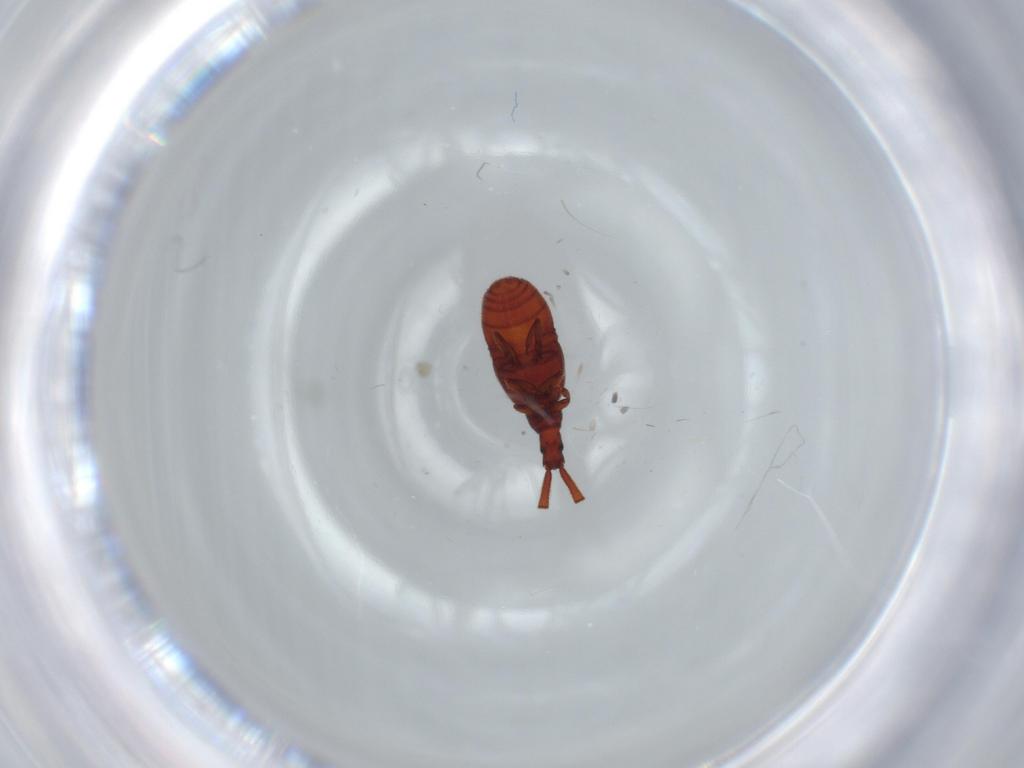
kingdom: Animalia
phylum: Arthropoda
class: Insecta
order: Coleoptera
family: Staphylinidae
